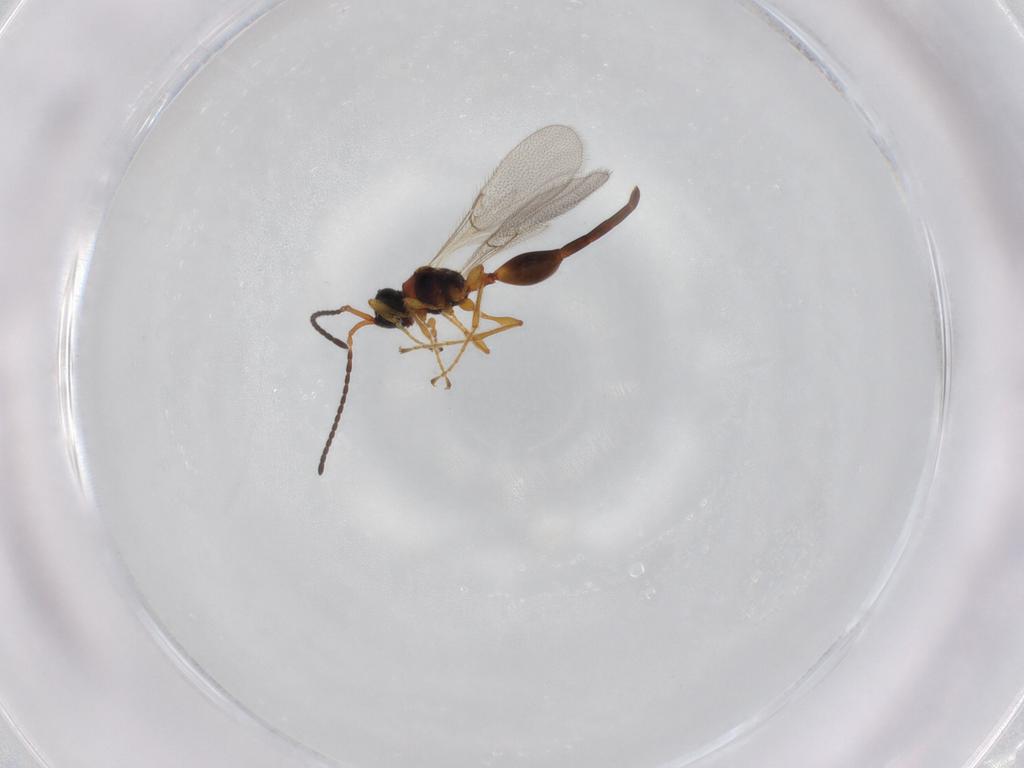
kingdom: Animalia
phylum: Arthropoda
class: Insecta
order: Hymenoptera
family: Diapriidae
